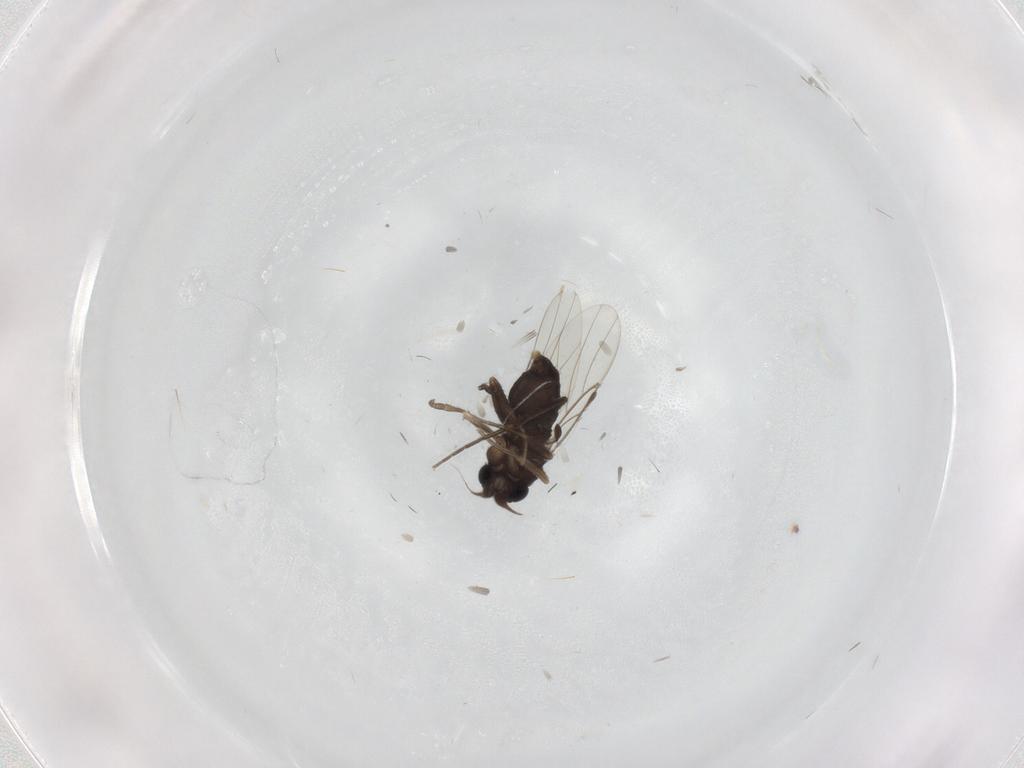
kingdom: Animalia
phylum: Arthropoda
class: Insecta
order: Diptera
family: Phoridae
